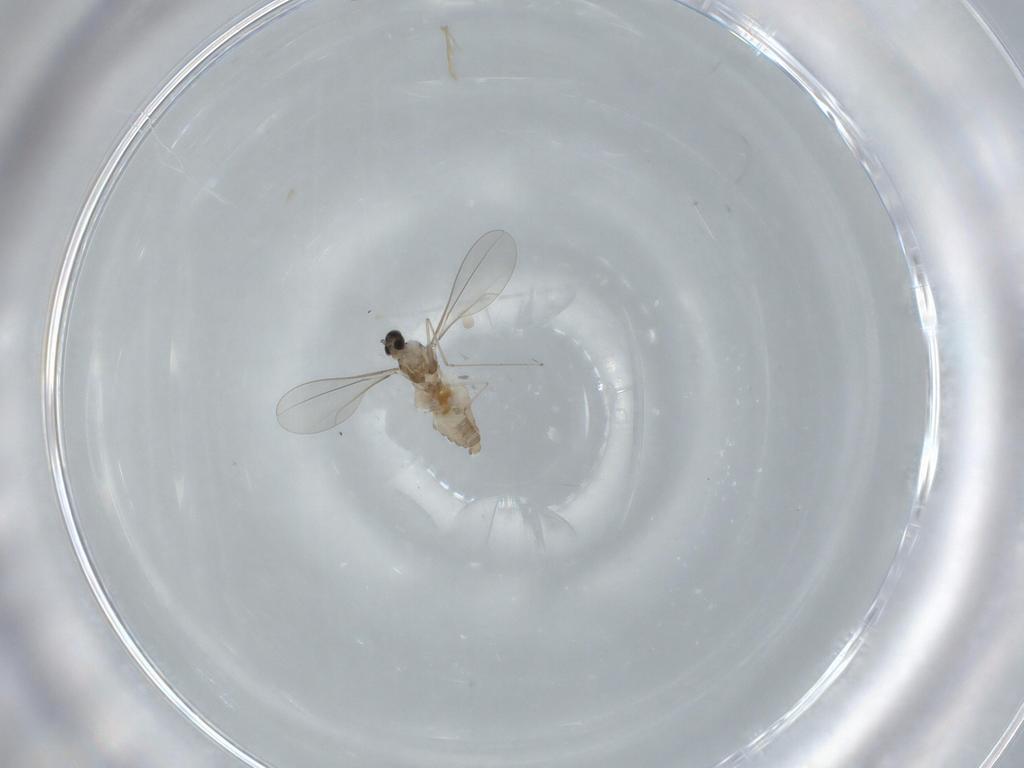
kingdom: Animalia
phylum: Arthropoda
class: Insecta
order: Diptera
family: Cecidomyiidae
